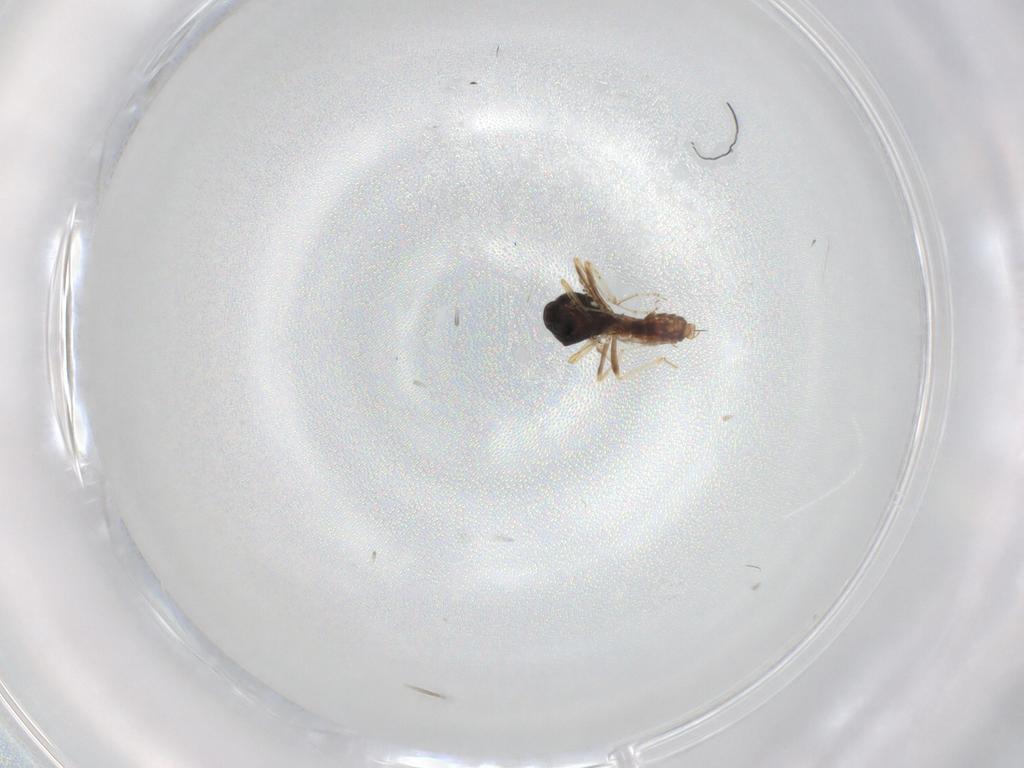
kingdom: Animalia
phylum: Arthropoda
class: Insecta
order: Diptera
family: Ceratopogonidae
